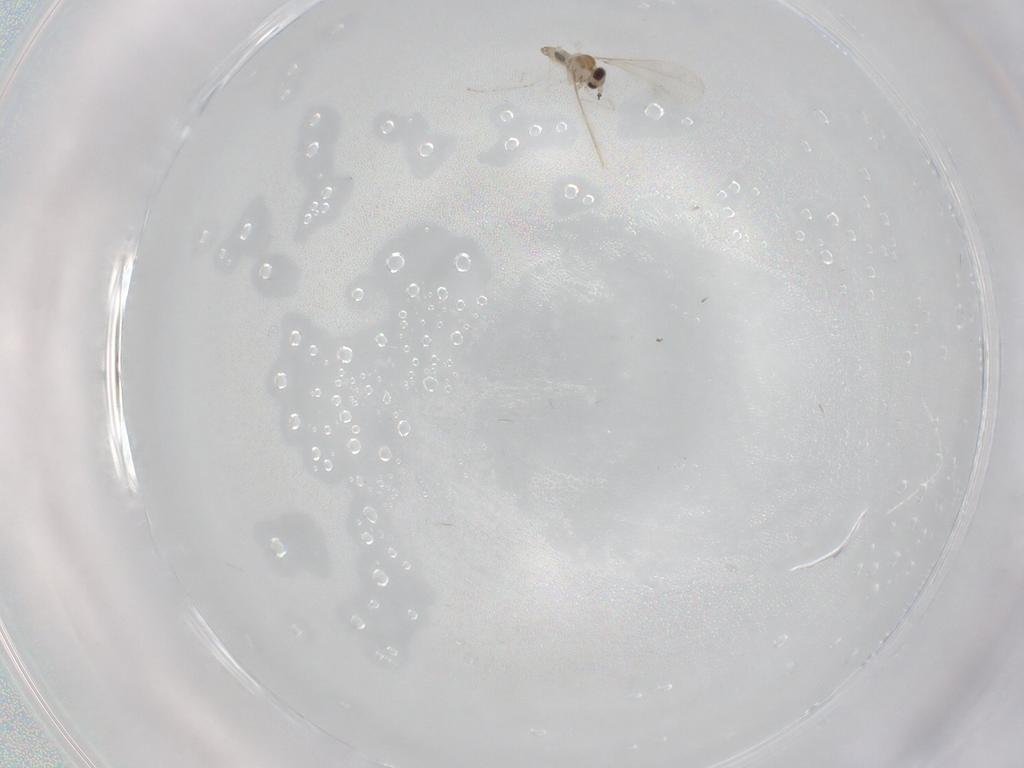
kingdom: Animalia
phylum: Arthropoda
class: Insecta
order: Diptera
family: Cecidomyiidae
